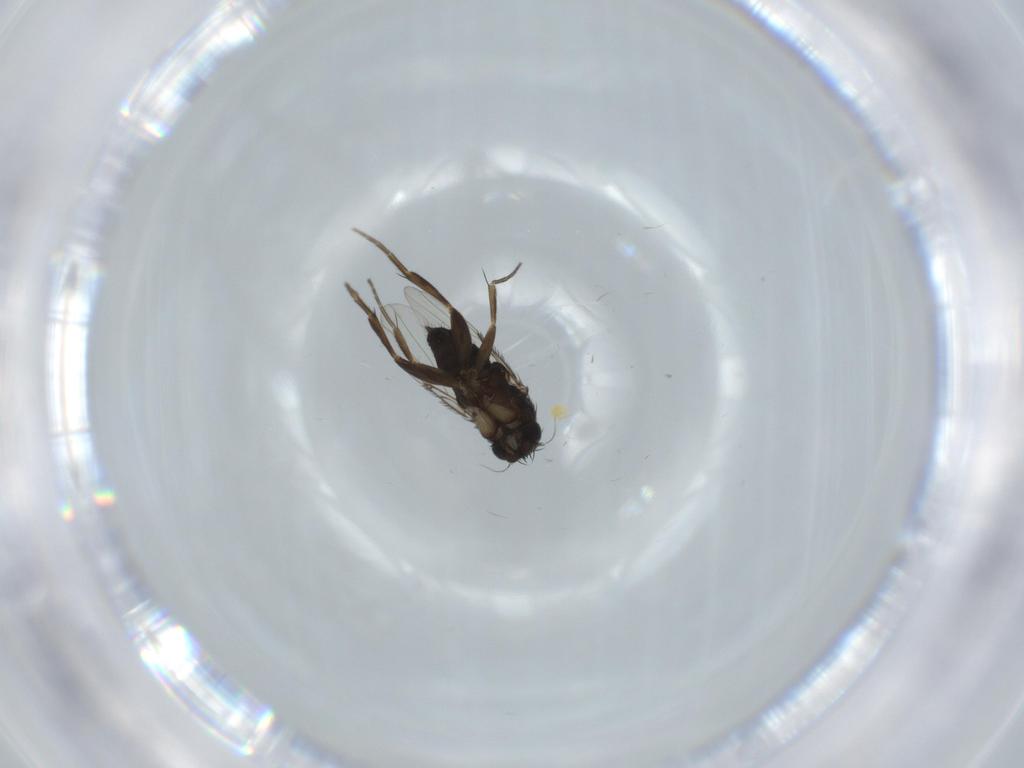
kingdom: Animalia
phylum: Arthropoda
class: Insecta
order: Diptera
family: Phoridae
